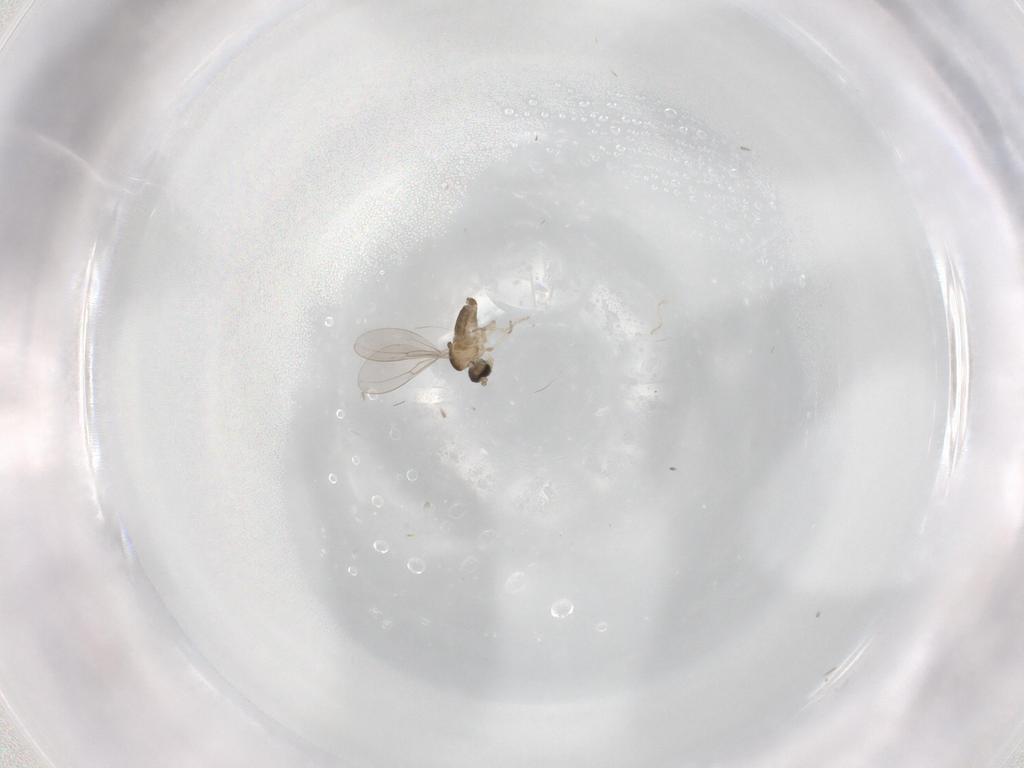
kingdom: Animalia
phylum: Arthropoda
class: Insecta
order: Diptera
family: Cecidomyiidae
